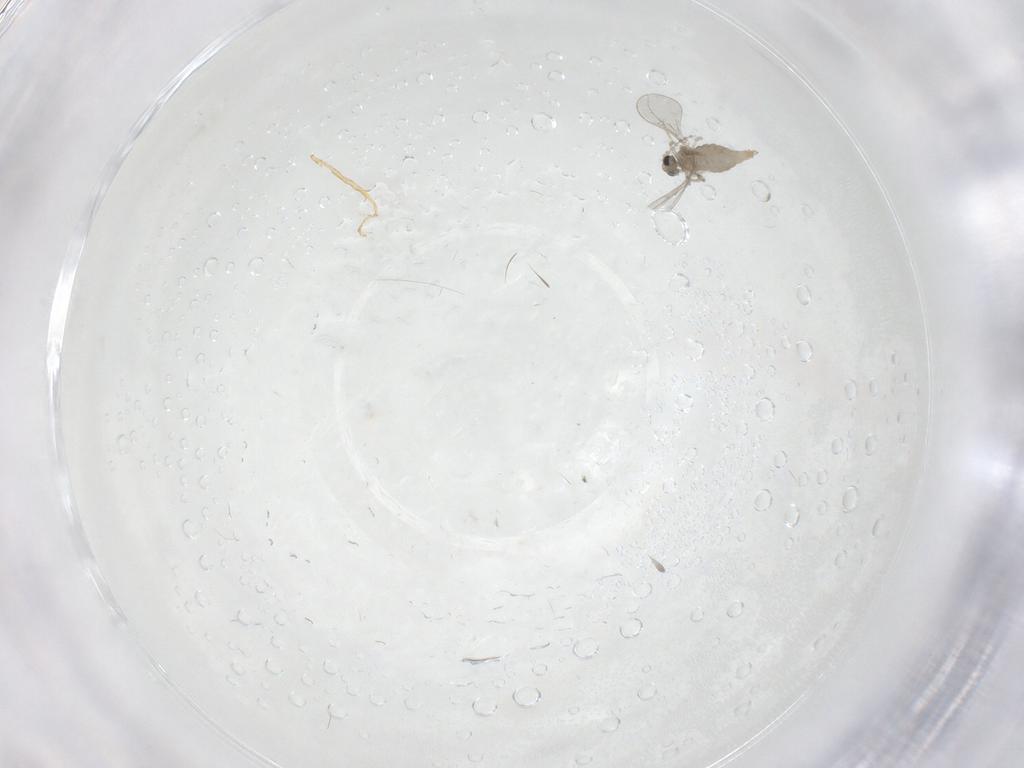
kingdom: Animalia
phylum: Arthropoda
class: Insecta
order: Diptera
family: Cecidomyiidae
